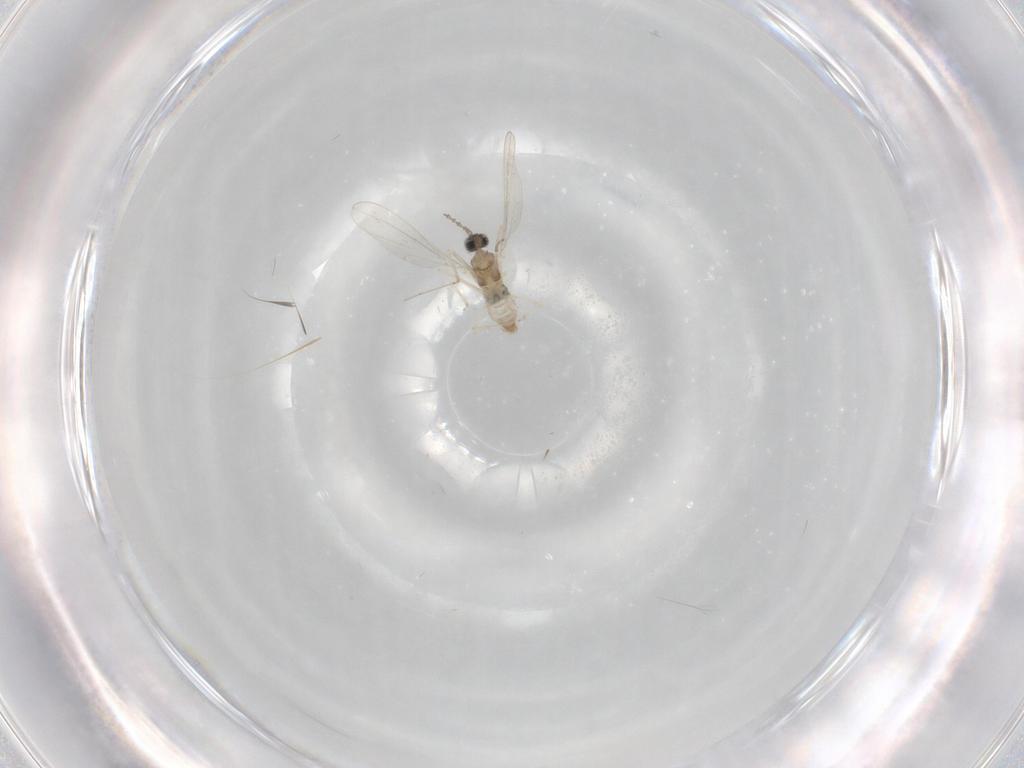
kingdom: Animalia
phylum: Arthropoda
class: Insecta
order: Diptera
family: Cecidomyiidae
